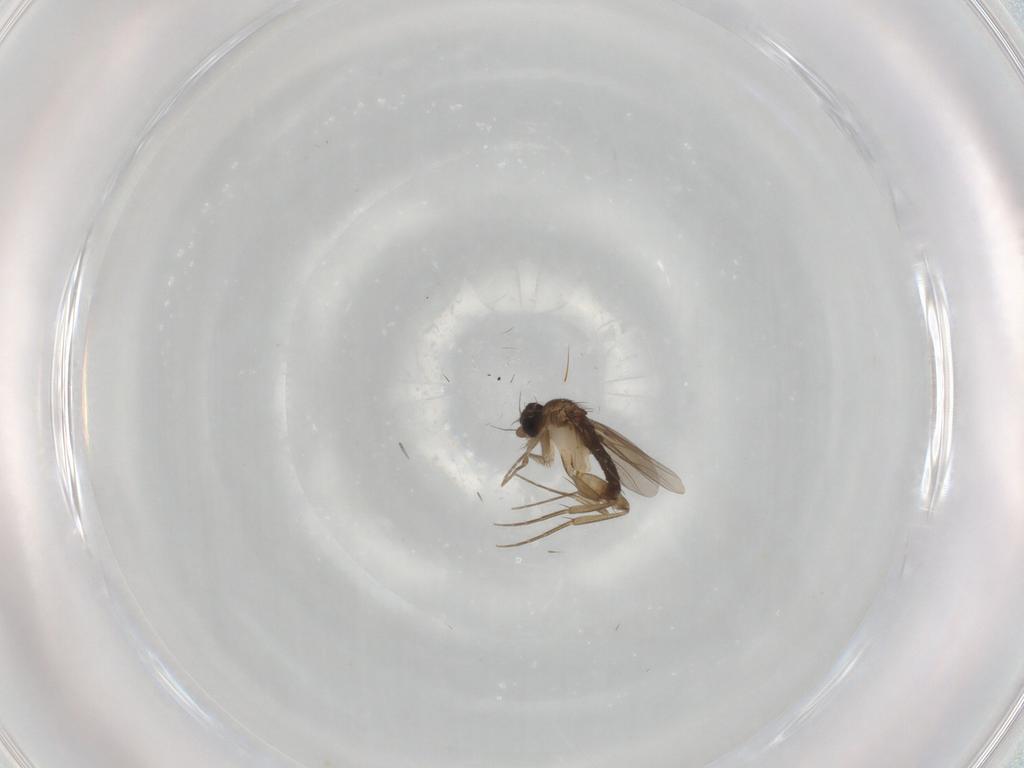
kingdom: Animalia
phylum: Arthropoda
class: Insecta
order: Diptera
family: Phoridae
